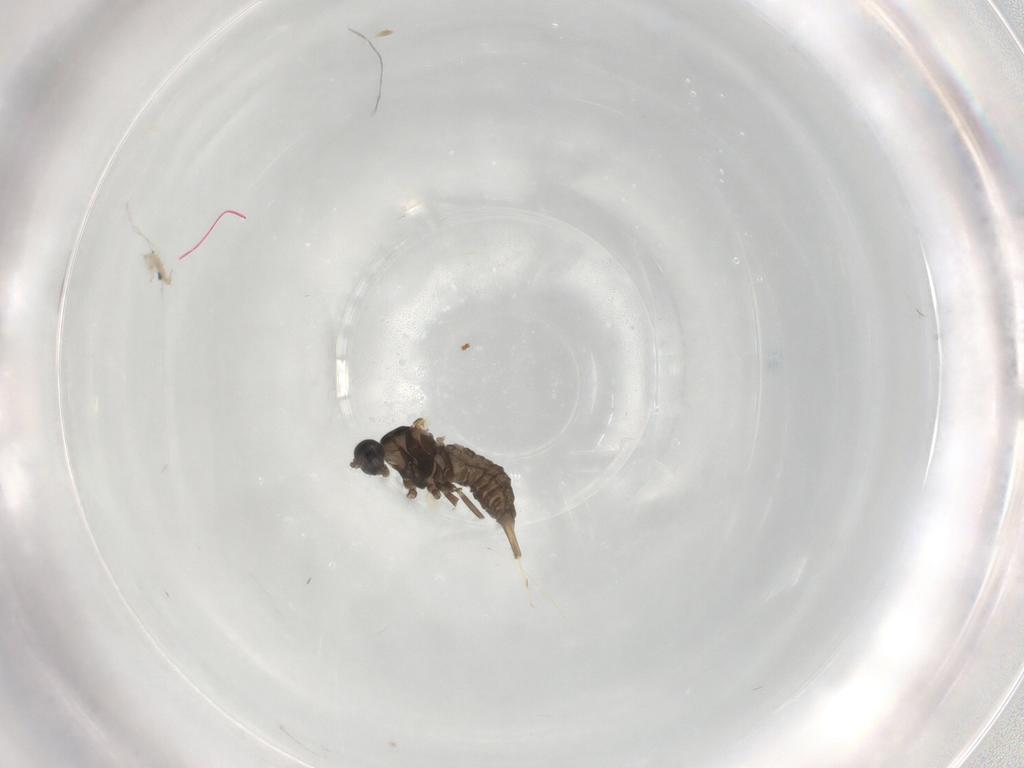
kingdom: Animalia
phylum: Arthropoda
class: Insecta
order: Diptera
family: Cecidomyiidae
